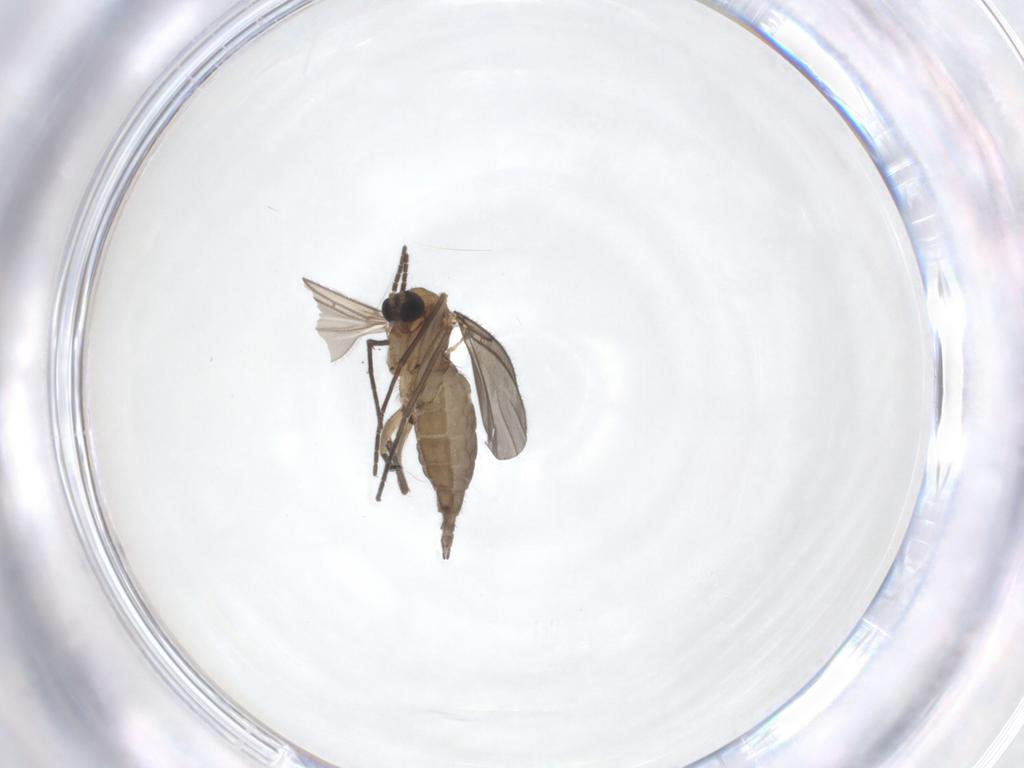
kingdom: Animalia
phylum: Arthropoda
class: Insecta
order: Diptera
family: Sciaridae
